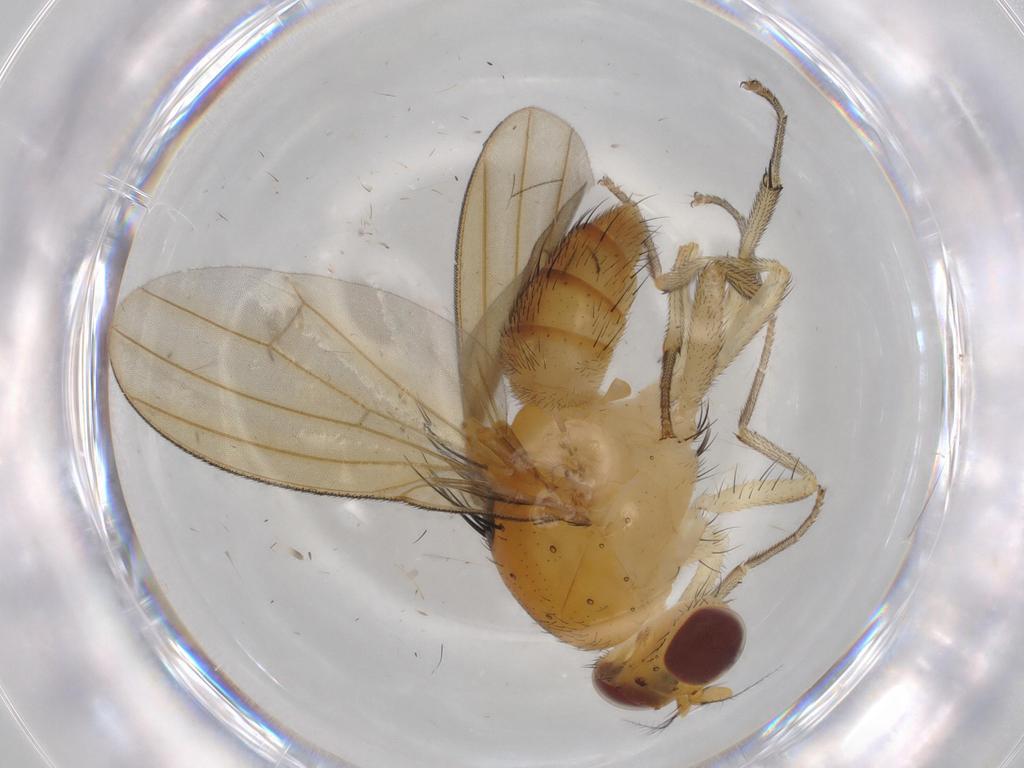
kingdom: Animalia
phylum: Arthropoda
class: Insecta
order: Diptera
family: Cecidomyiidae
